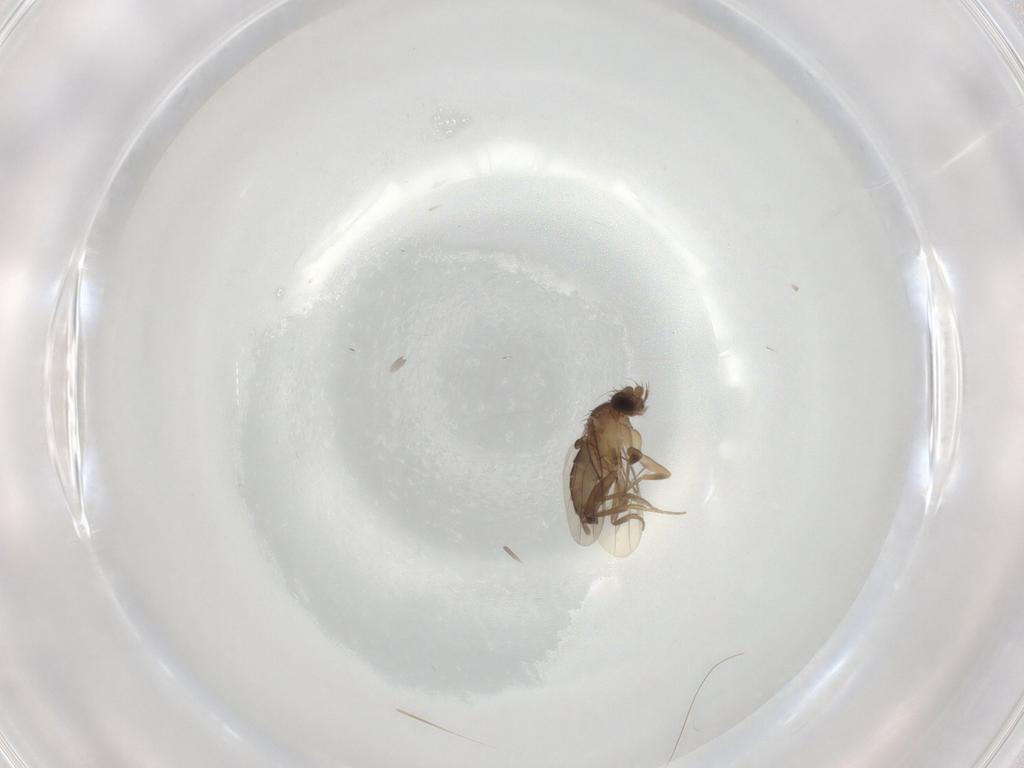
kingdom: Animalia
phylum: Arthropoda
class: Insecta
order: Diptera
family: Phoridae
